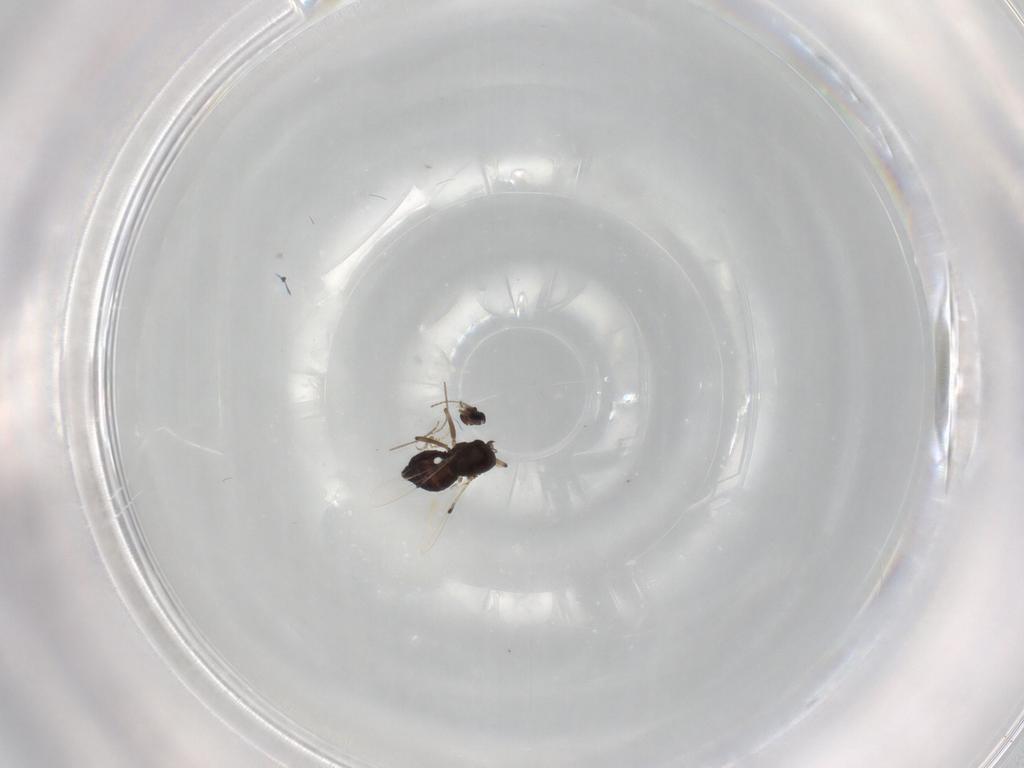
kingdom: Animalia
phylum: Arthropoda
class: Insecta
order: Diptera
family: Ceratopogonidae
